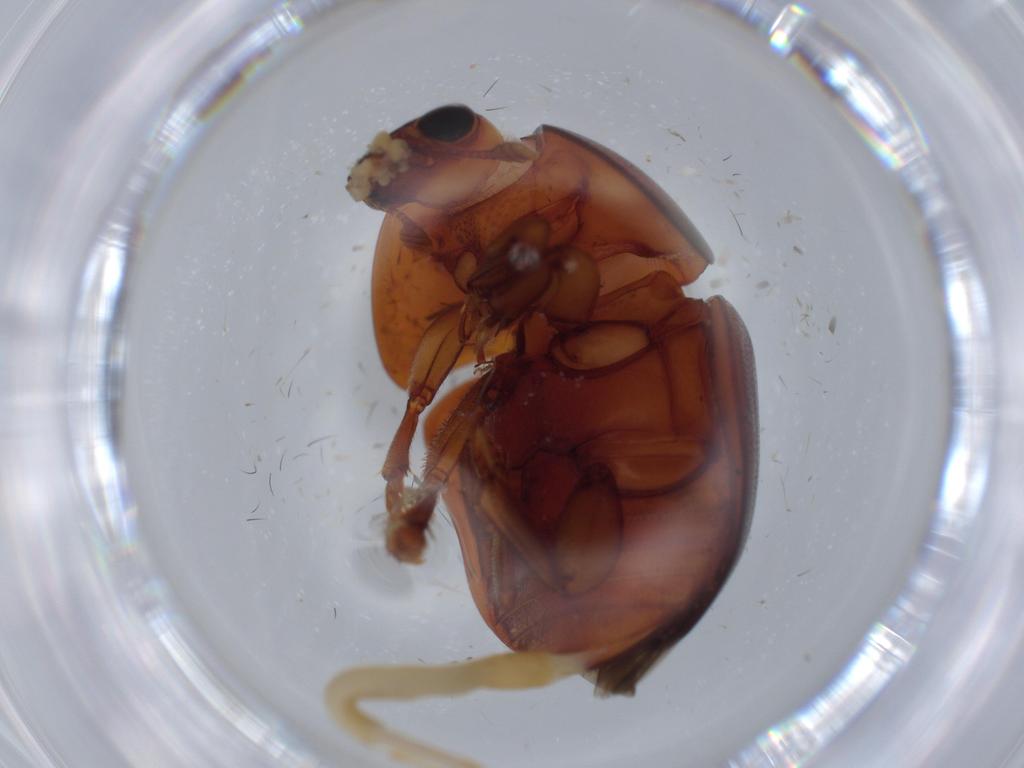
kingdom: Animalia
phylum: Arthropoda
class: Insecta
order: Coleoptera
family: Nitidulidae
